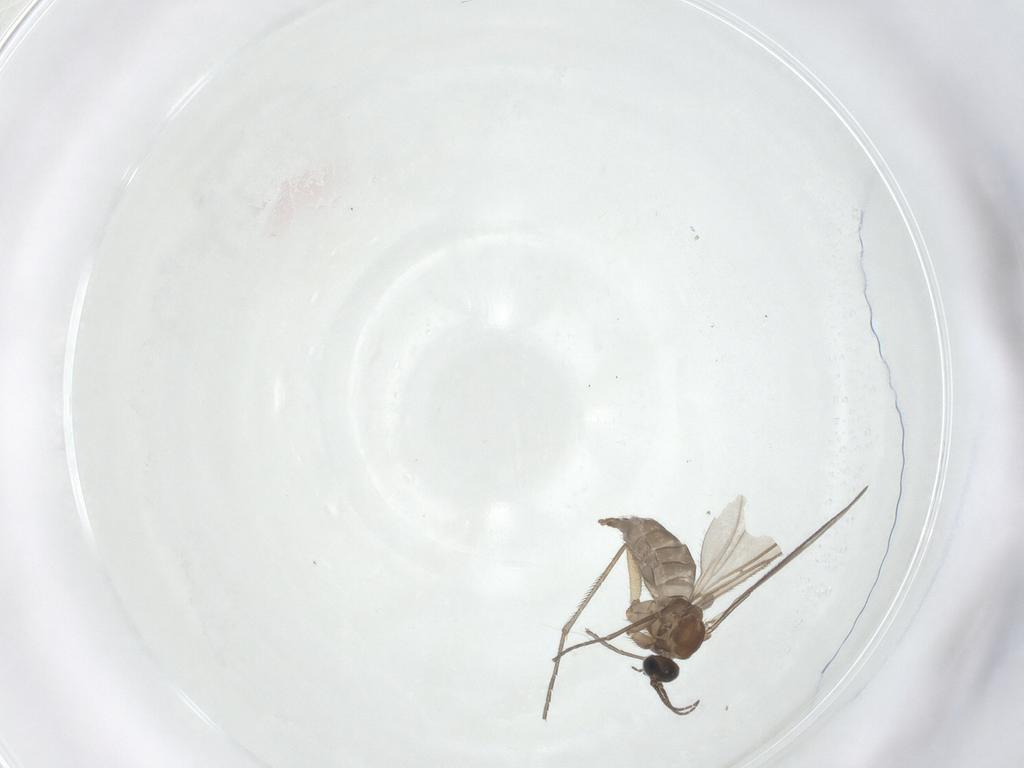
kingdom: Animalia
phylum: Arthropoda
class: Insecta
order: Diptera
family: Sciaridae
